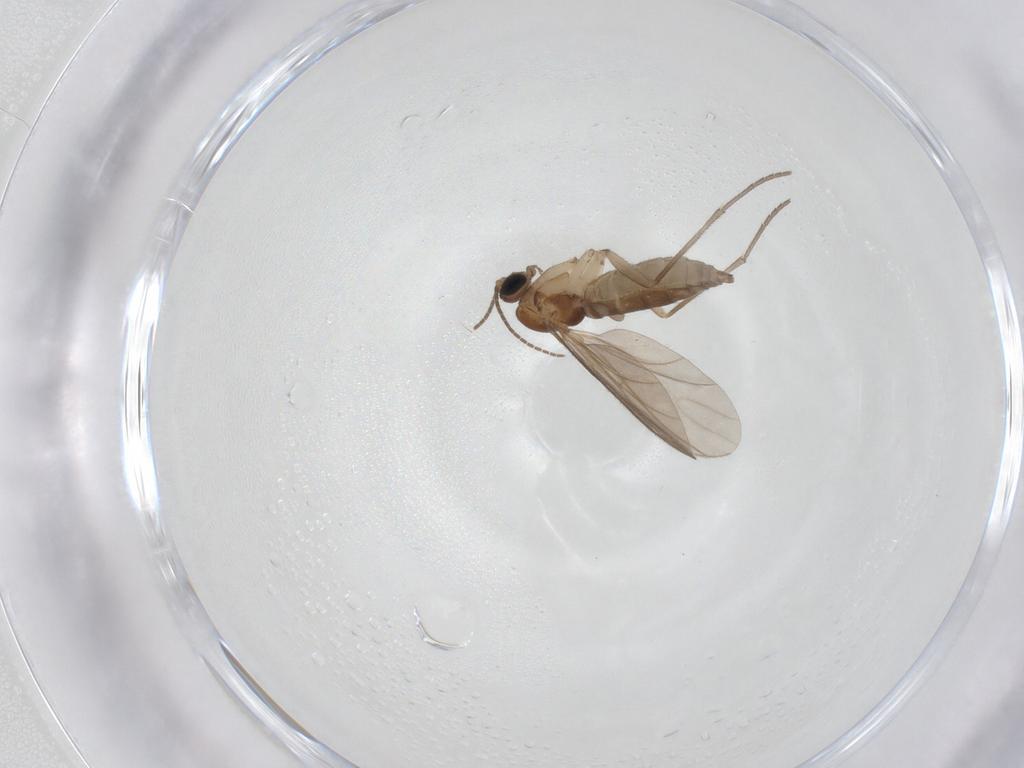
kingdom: Animalia
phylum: Arthropoda
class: Insecta
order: Diptera
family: Sciaridae
